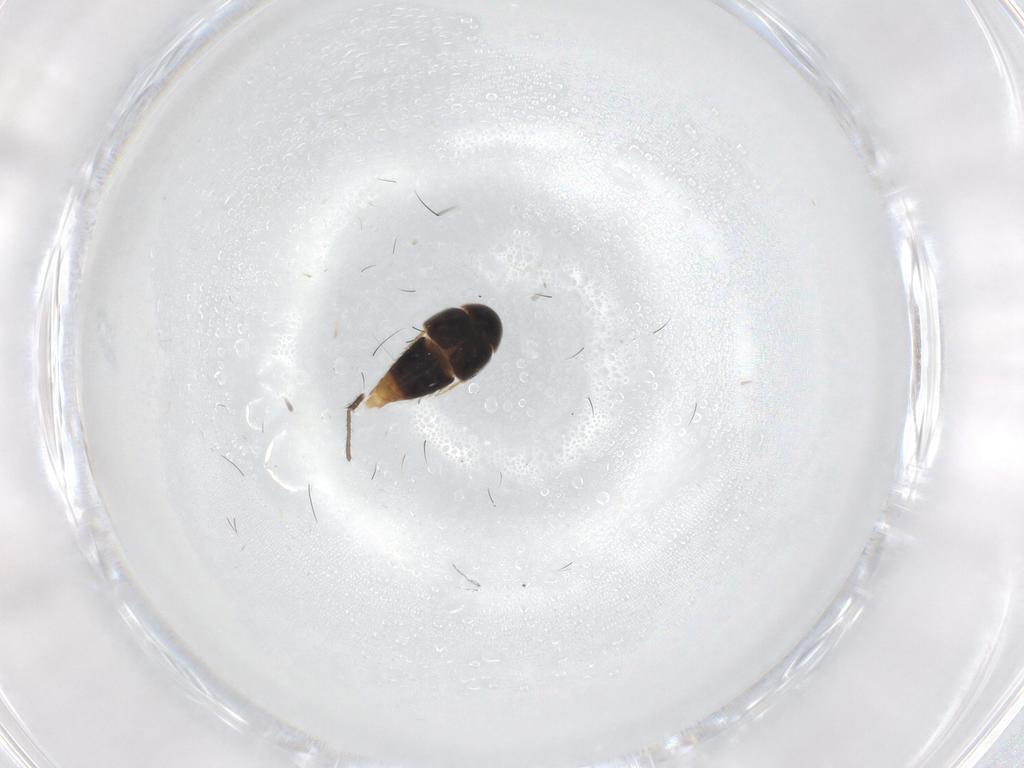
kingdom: Animalia
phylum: Arthropoda
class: Insecta
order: Coleoptera
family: Staphylinidae
